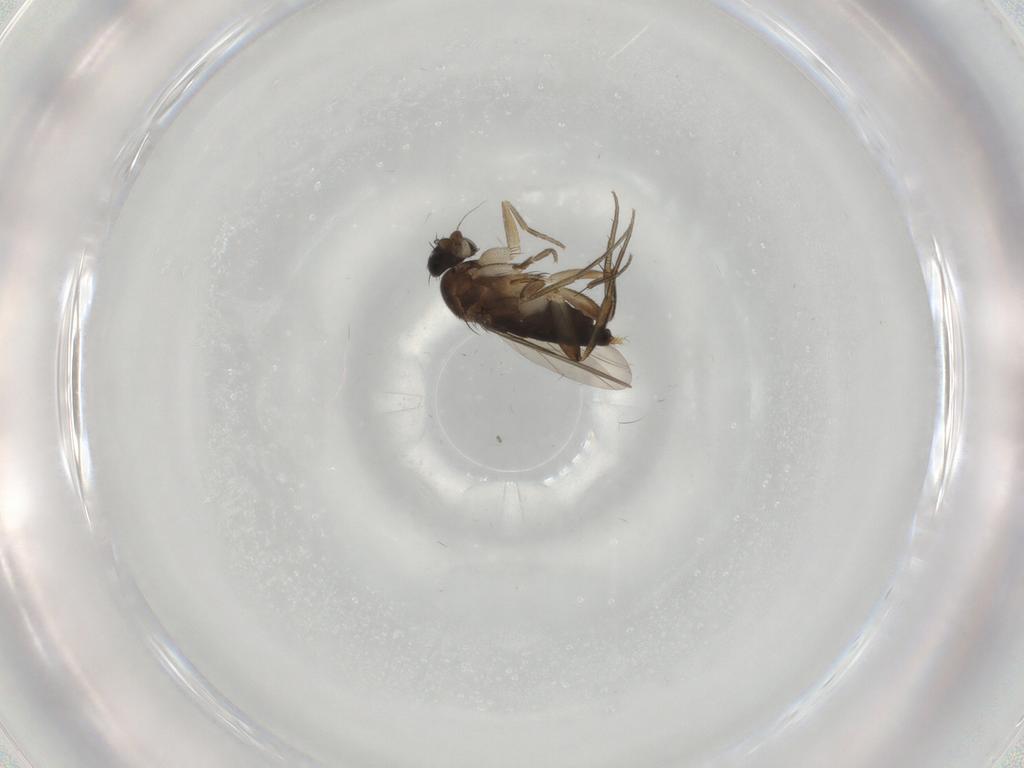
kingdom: Animalia
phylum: Arthropoda
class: Insecta
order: Diptera
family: Phoridae
